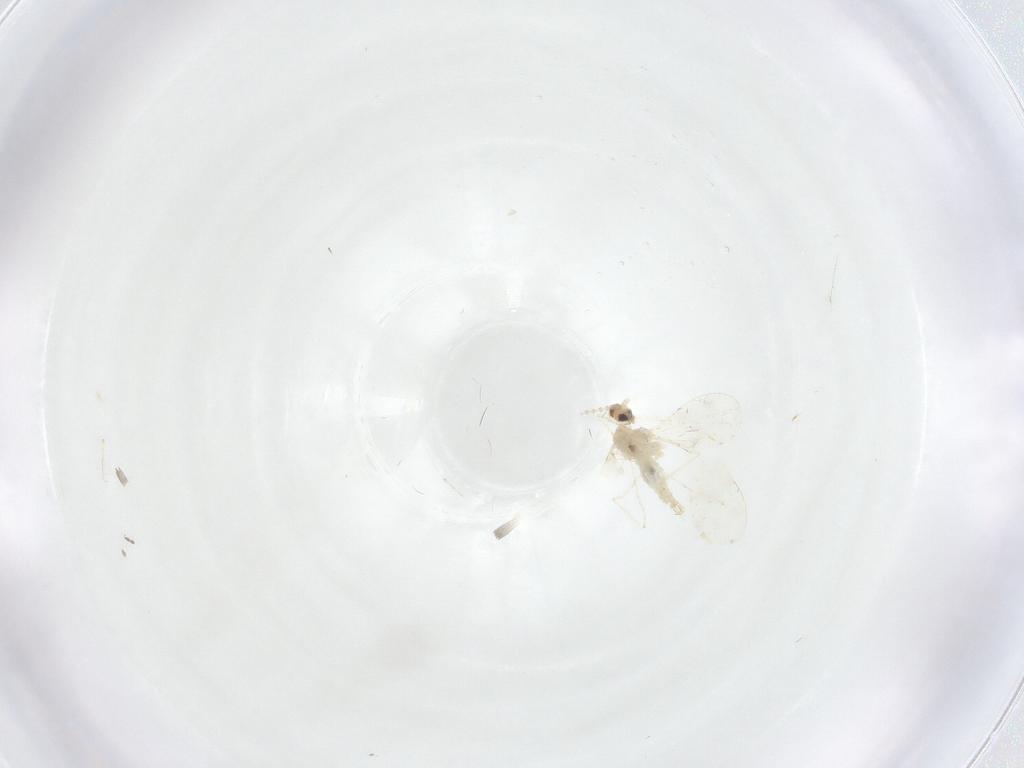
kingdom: Animalia
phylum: Arthropoda
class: Insecta
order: Diptera
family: Cecidomyiidae
